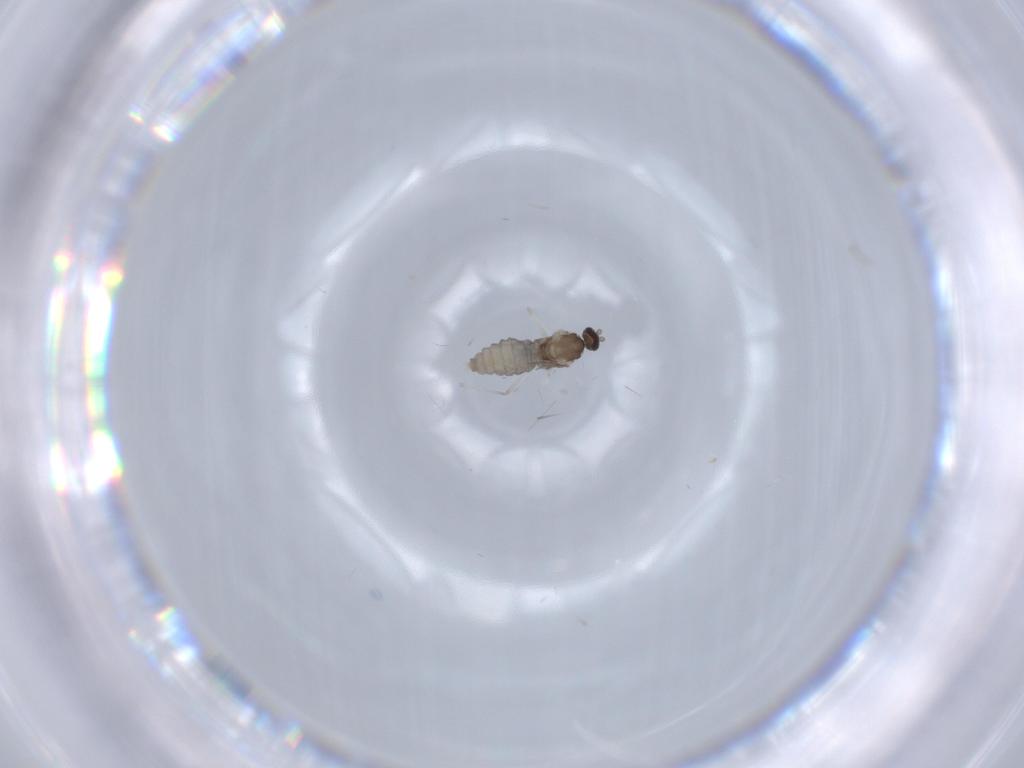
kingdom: Animalia
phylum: Arthropoda
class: Insecta
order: Diptera
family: Cecidomyiidae
